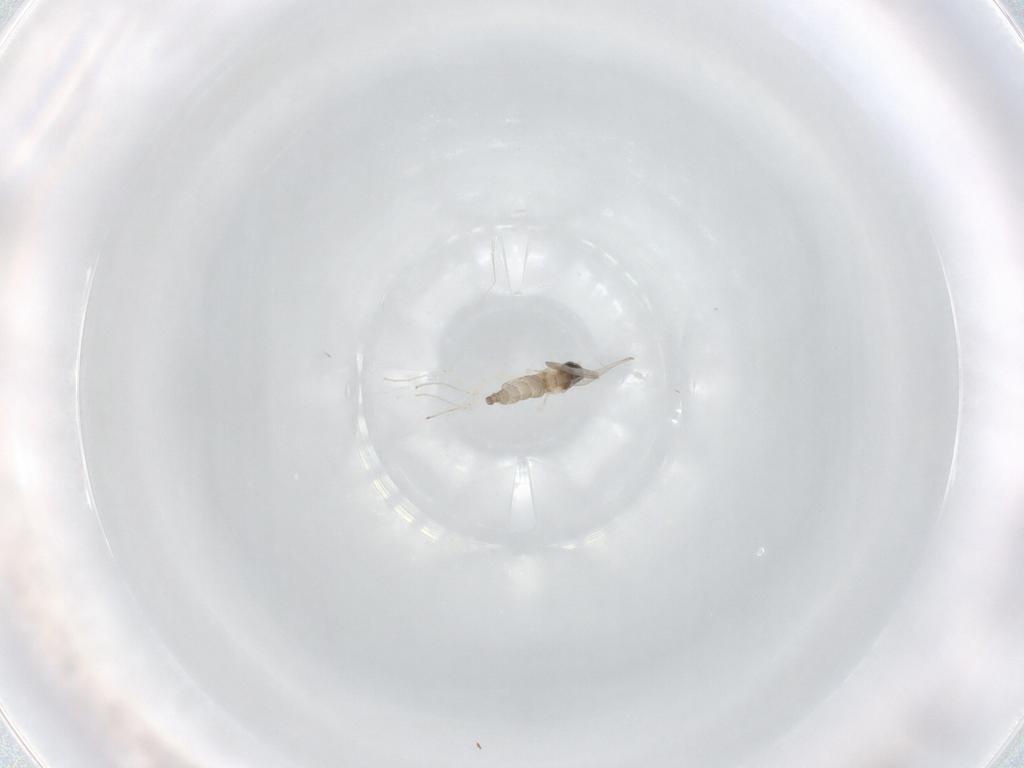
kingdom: Animalia
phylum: Arthropoda
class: Insecta
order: Diptera
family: Cecidomyiidae
